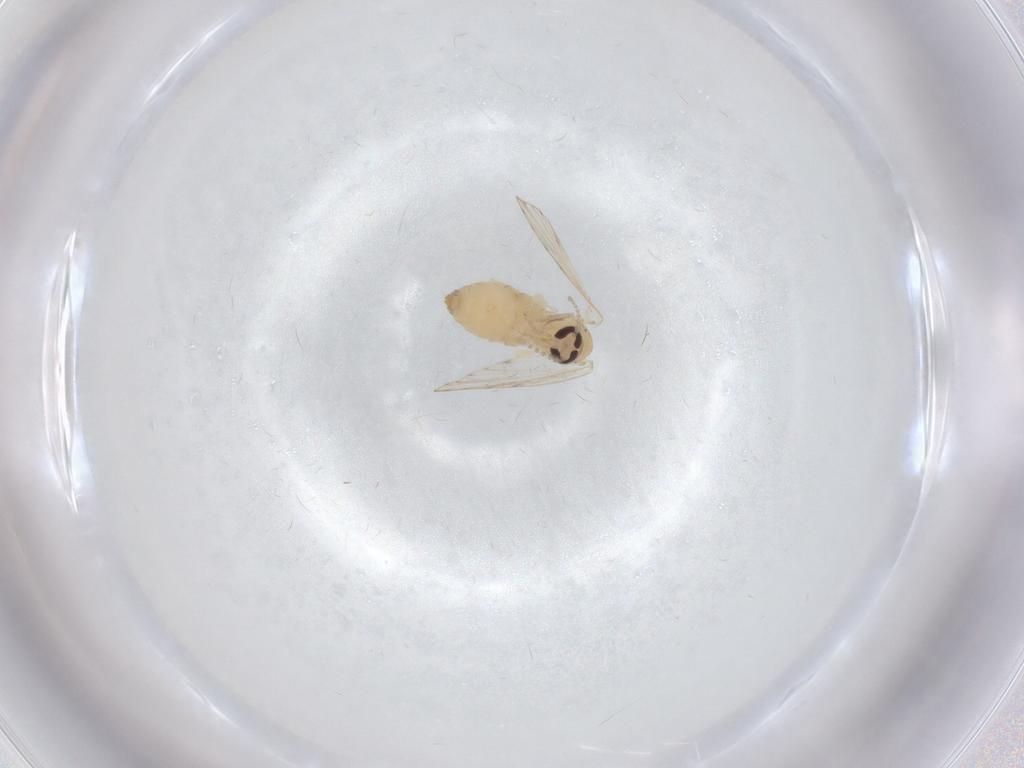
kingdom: Animalia
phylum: Arthropoda
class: Insecta
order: Diptera
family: Psychodidae
